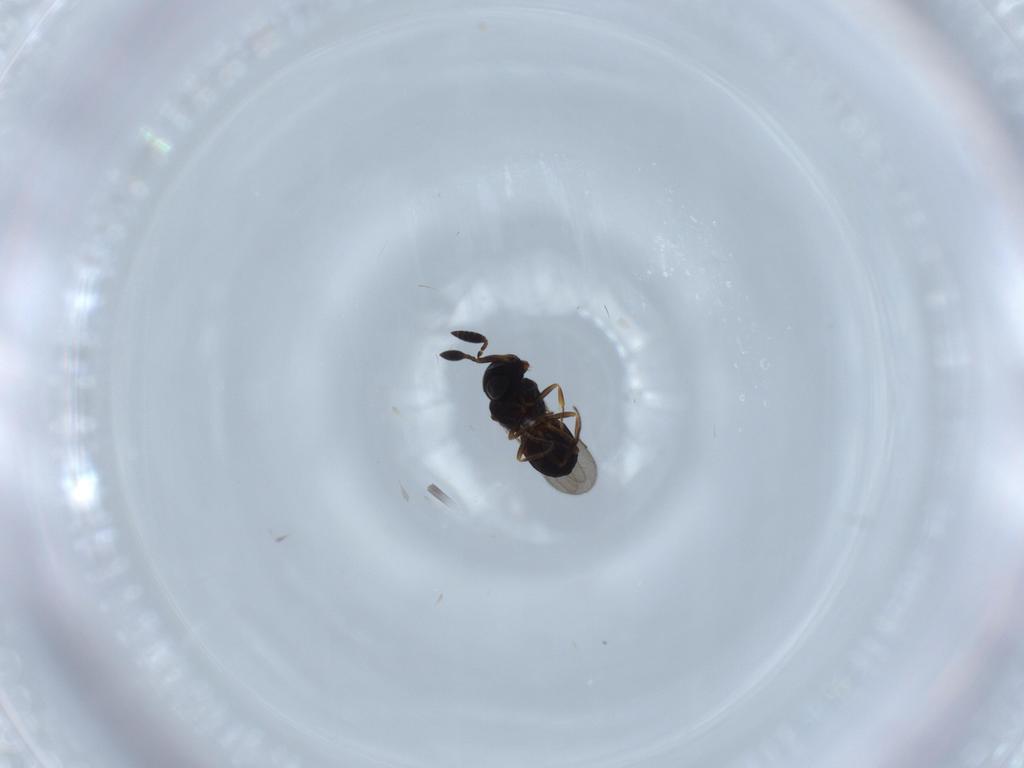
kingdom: Animalia
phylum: Arthropoda
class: Insecta
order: Hymenoptera
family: Scelionidae
